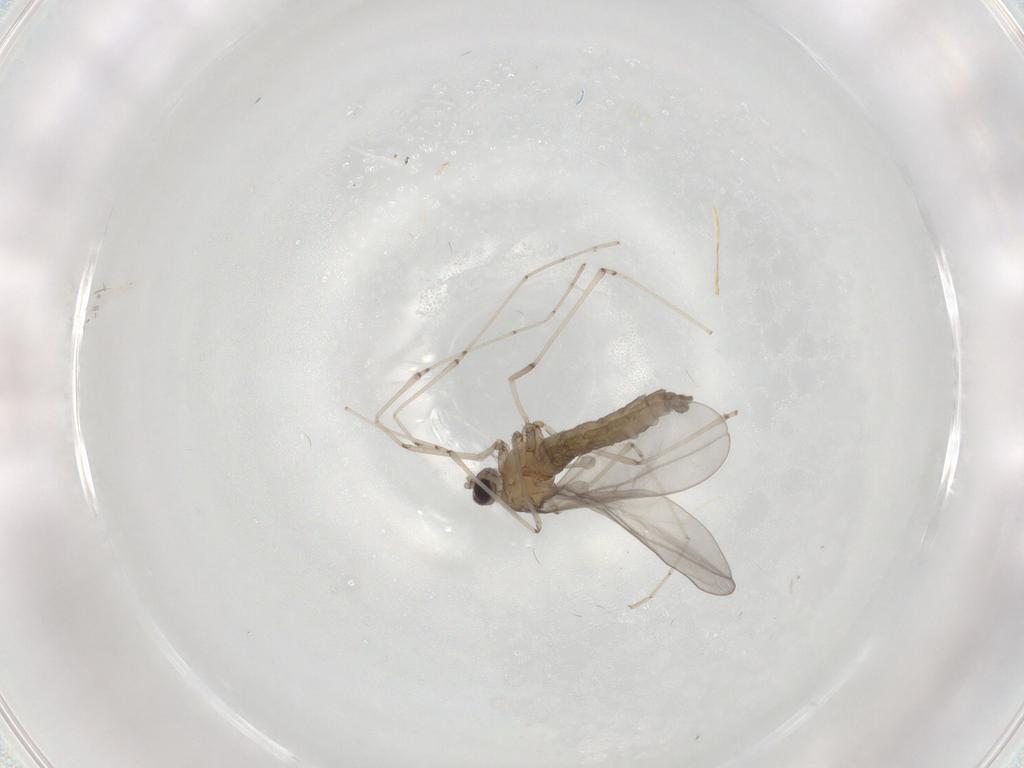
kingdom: Animalia
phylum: Arthropoda
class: Insecta
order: Diptera
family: Cecidomyiidae
